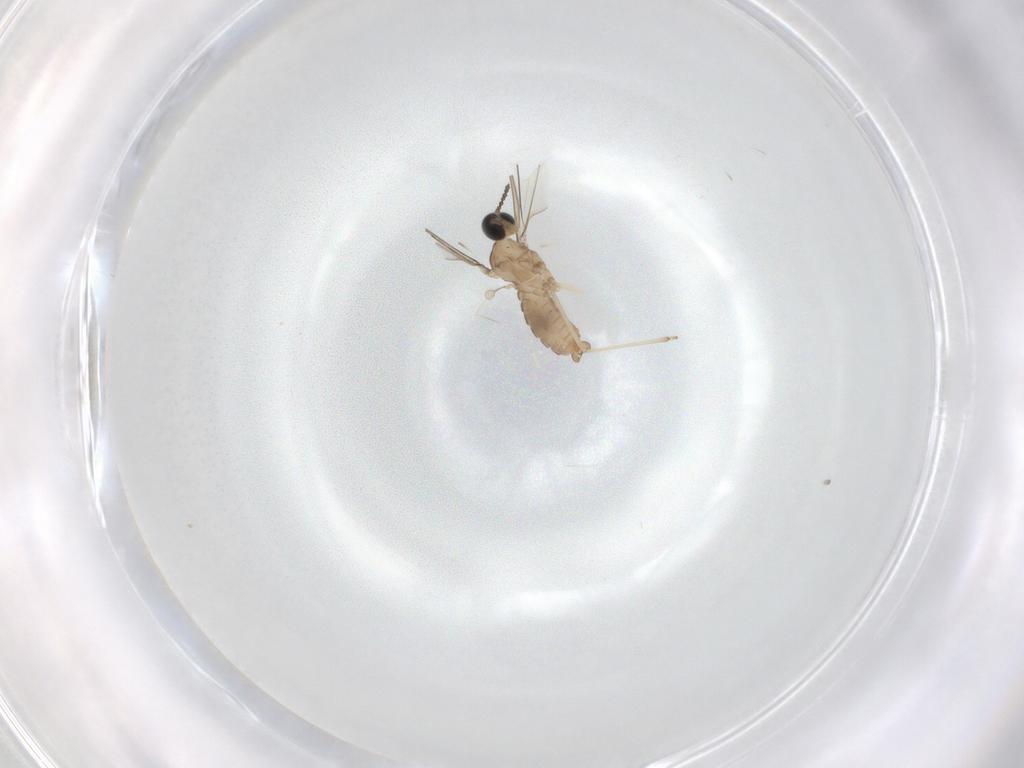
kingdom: Animalia
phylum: Arthropoda
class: Insecta
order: Diptera
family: Cecidomyiidae
